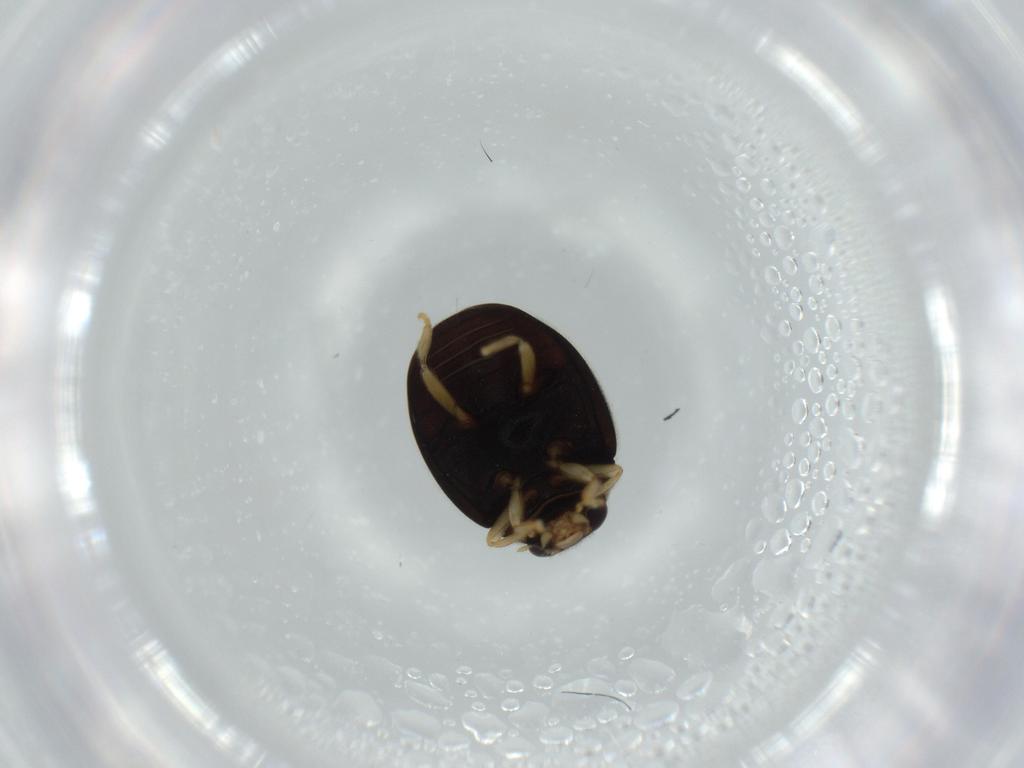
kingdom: Animalia
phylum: Arthropoda
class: Insecta
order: Coleoptera
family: Coccinellidae
